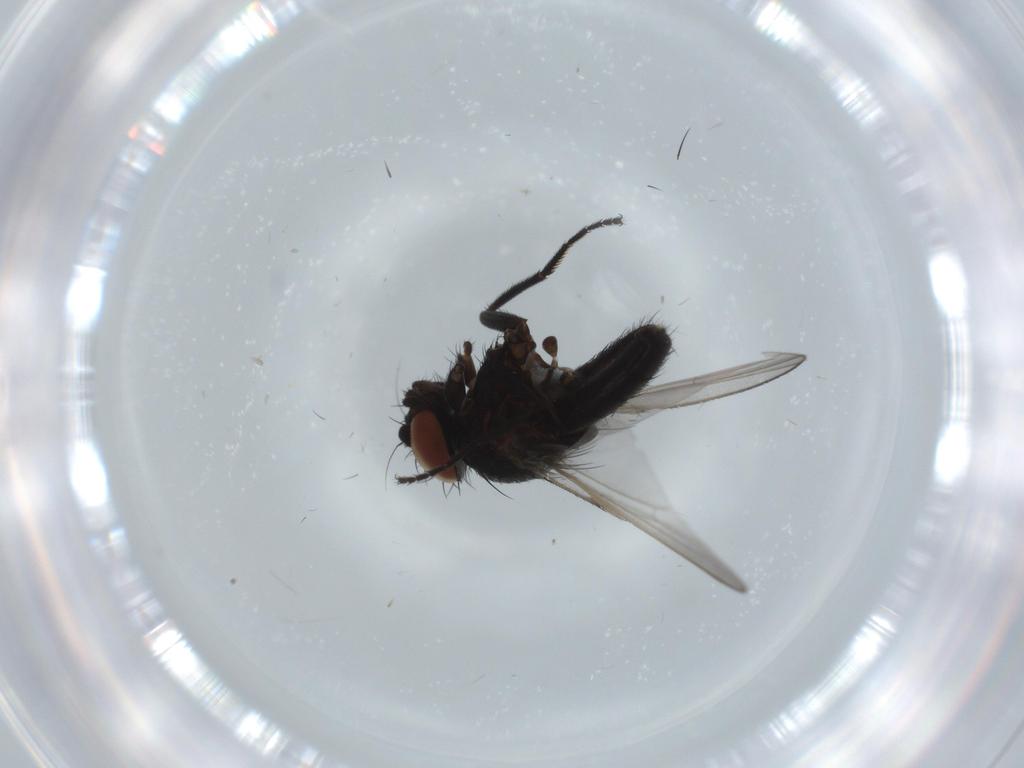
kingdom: Animalia
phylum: Arthropoda
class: Insecta
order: Diptera
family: Milichiidae
